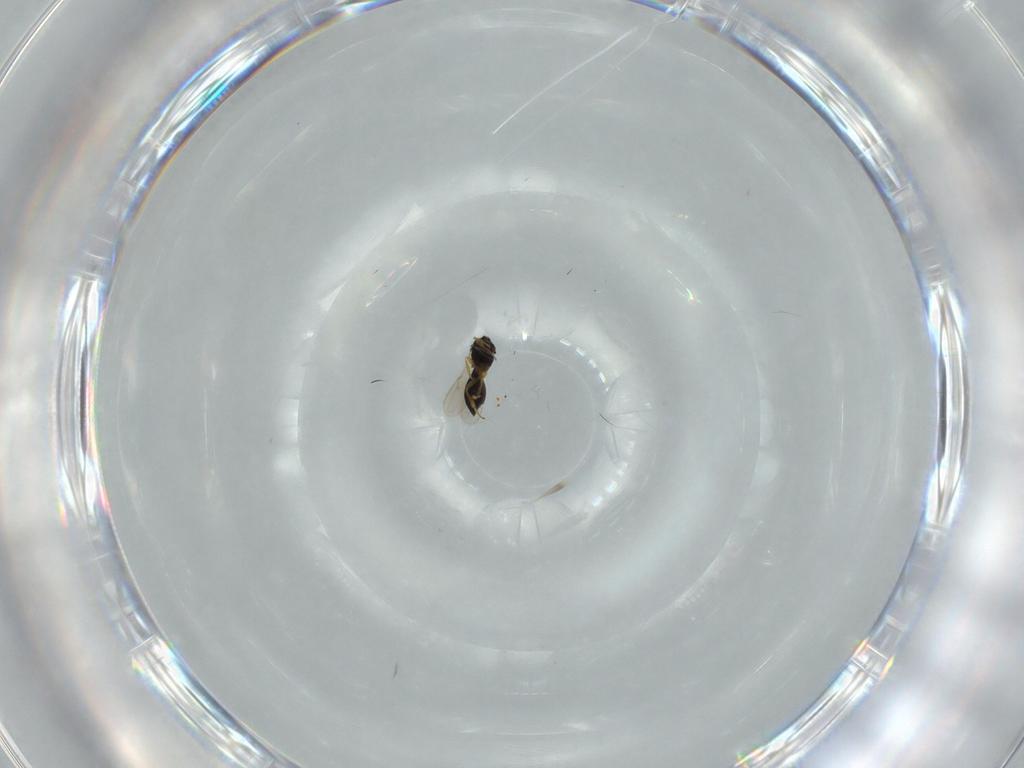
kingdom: Animalia
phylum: Arthropoda
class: Insecta
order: Hymenoptera
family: Scelionidae
